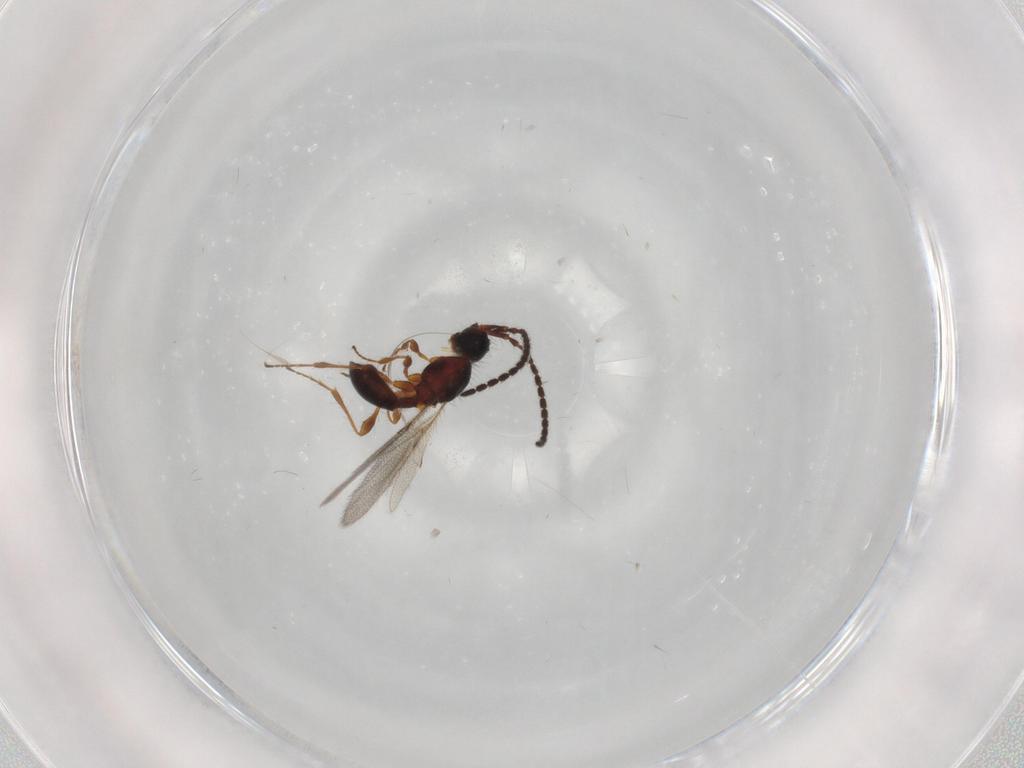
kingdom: Animalia
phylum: Arthropoda
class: Insecta
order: Hymenoptera
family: Diapriidae
